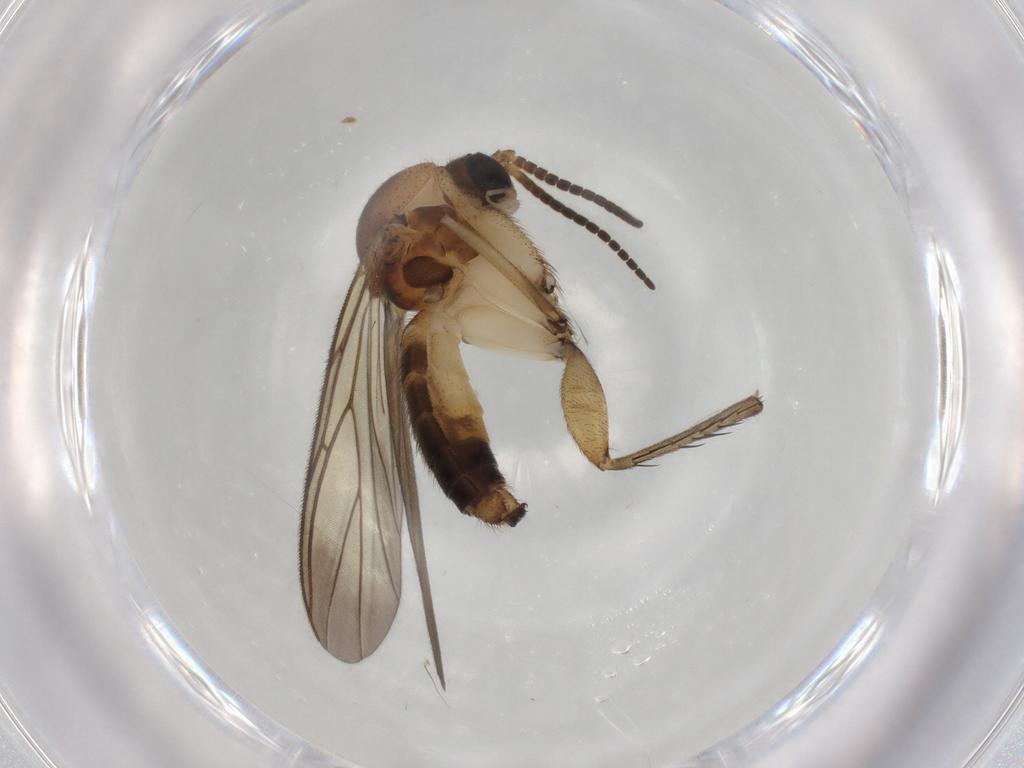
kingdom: Animalia
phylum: Arthropoda
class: Insecta
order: Diptera
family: Mycetophilidae
